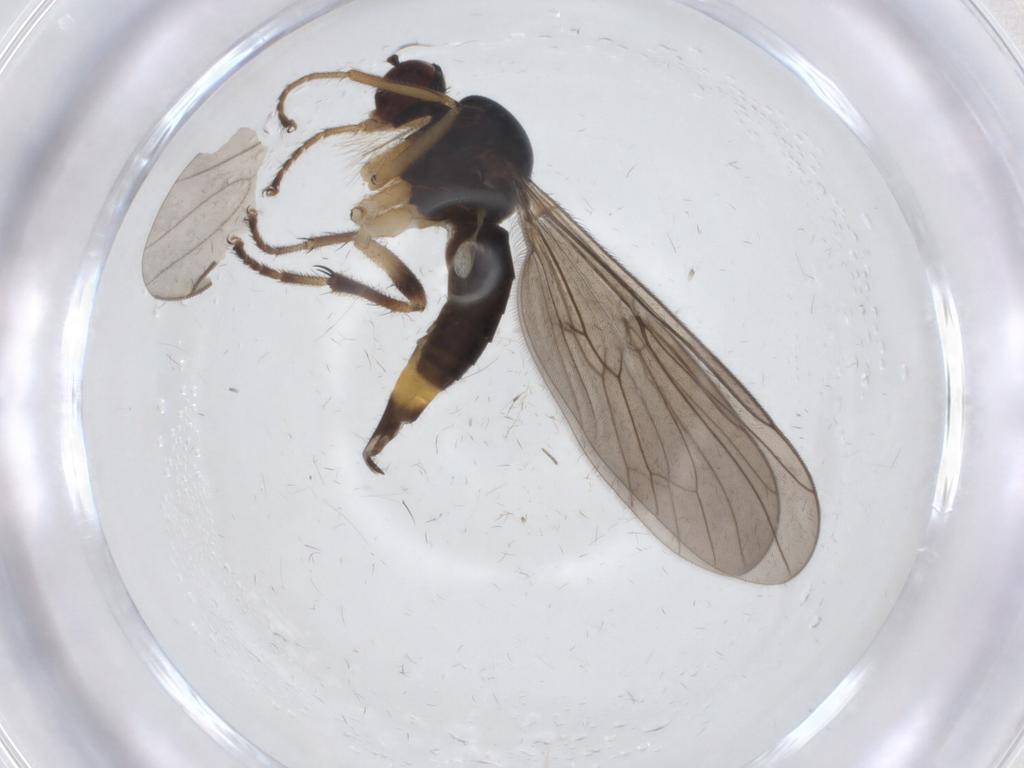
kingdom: Animalia
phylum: Arthropoda
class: Insecta
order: Diptera
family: Hybotidae
